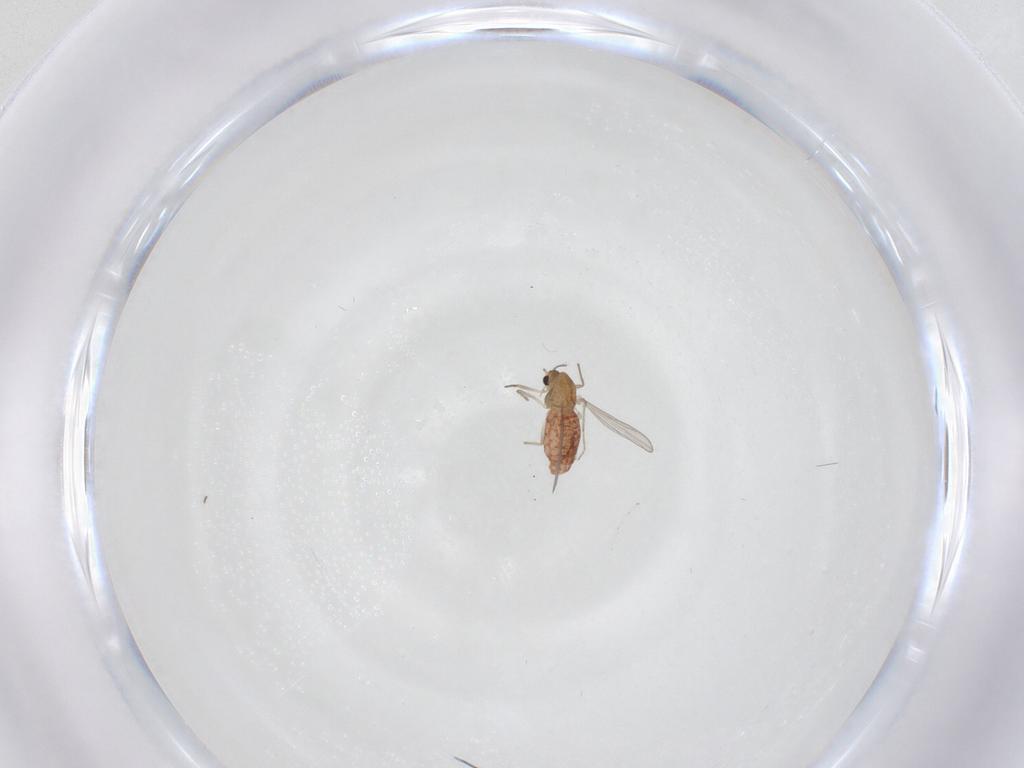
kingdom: Animalia
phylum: Arthropoda
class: Insecta
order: Diptera
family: Chironomidae
